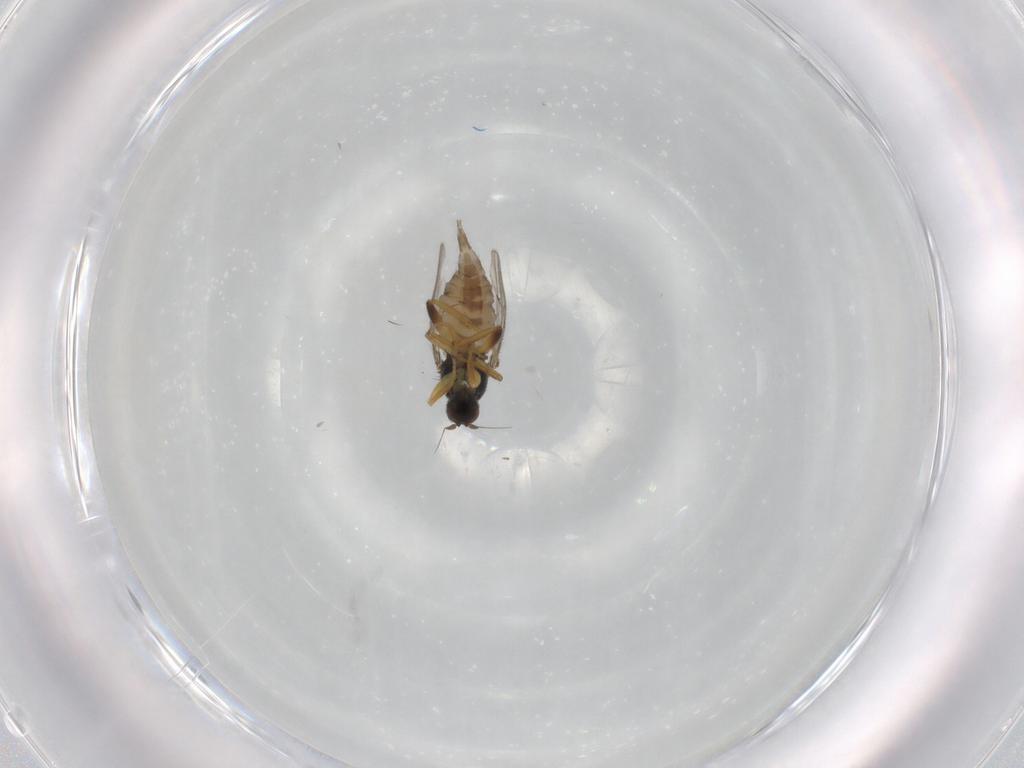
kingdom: Animalia
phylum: Arthropoda
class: Insecta
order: Diptera
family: Hybotidae
